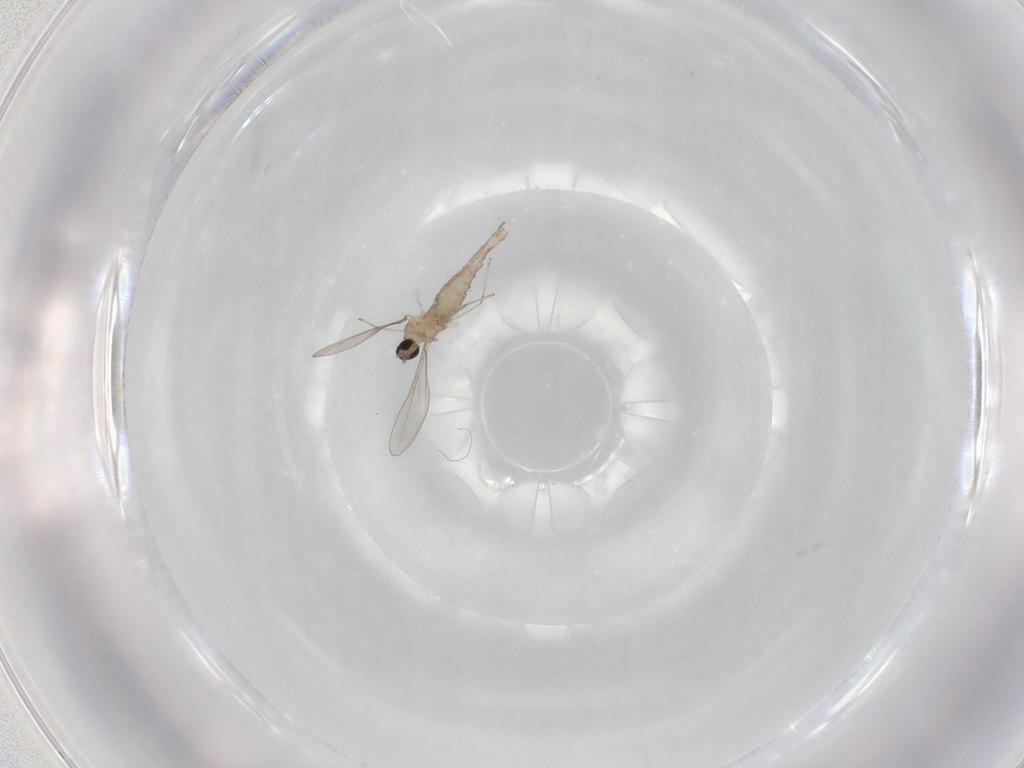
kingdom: Animalia
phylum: Arthropoda
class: Insecta
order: Diptera
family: Cecidomyiidae
